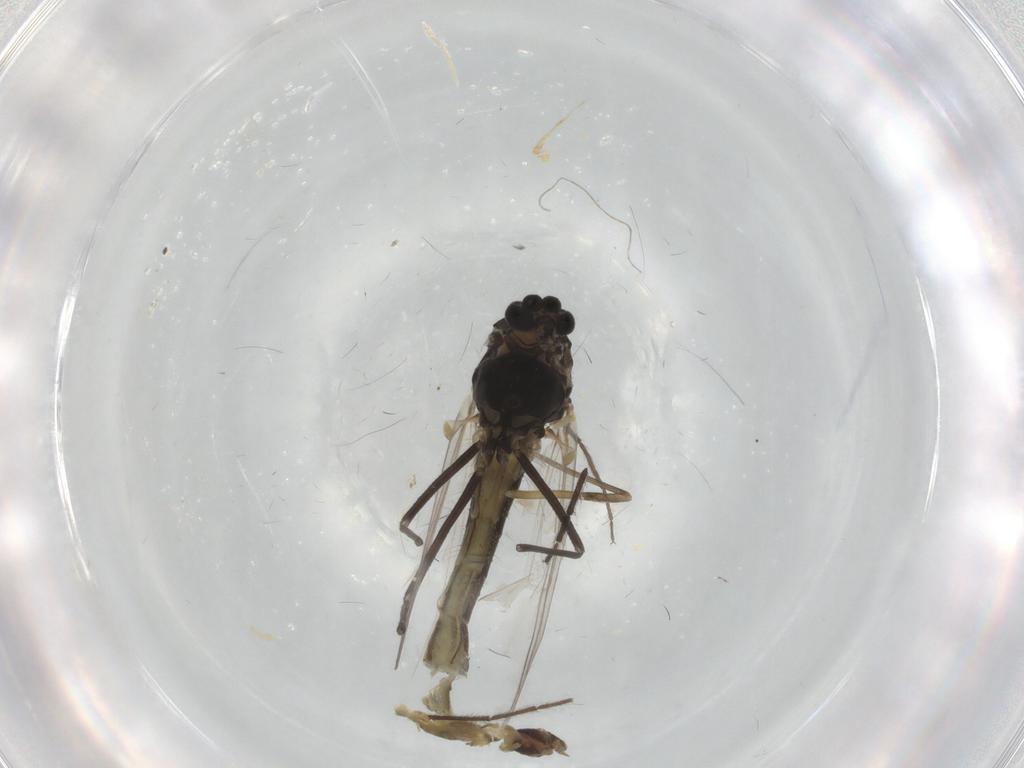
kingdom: Animalia
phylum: Arthropoda
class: Insecta
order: Diptera
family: Chironomidae
